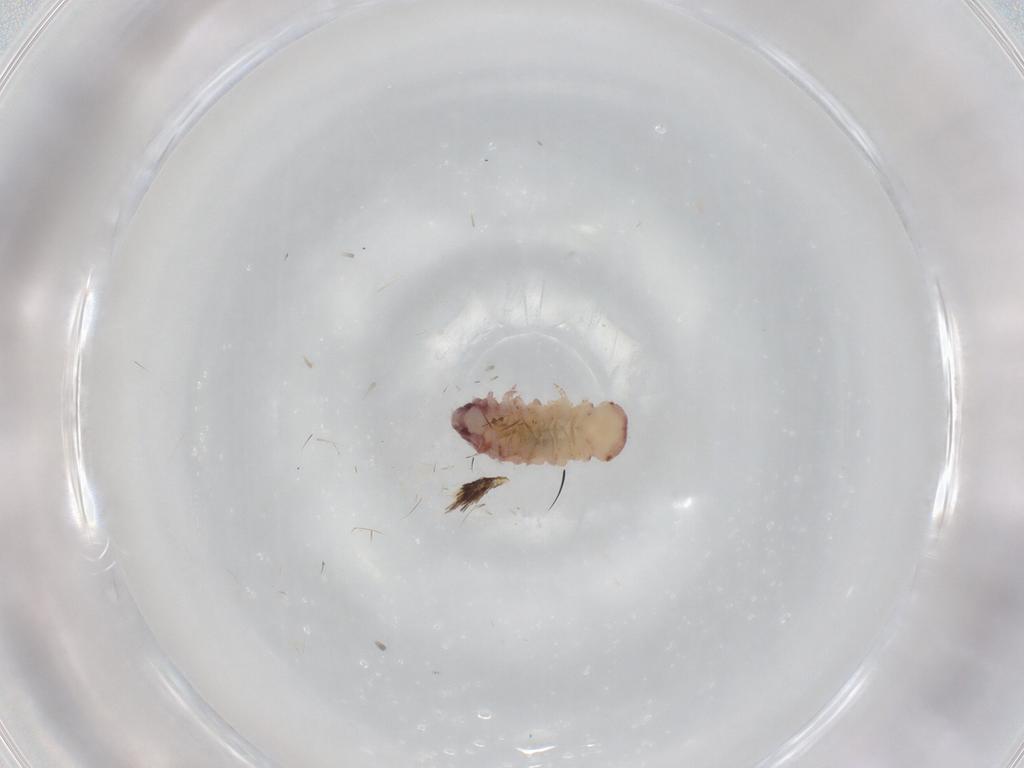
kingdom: Animalia
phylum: Arthropoda
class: Diplopoda
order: Polyxenida
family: Polyxenidae
